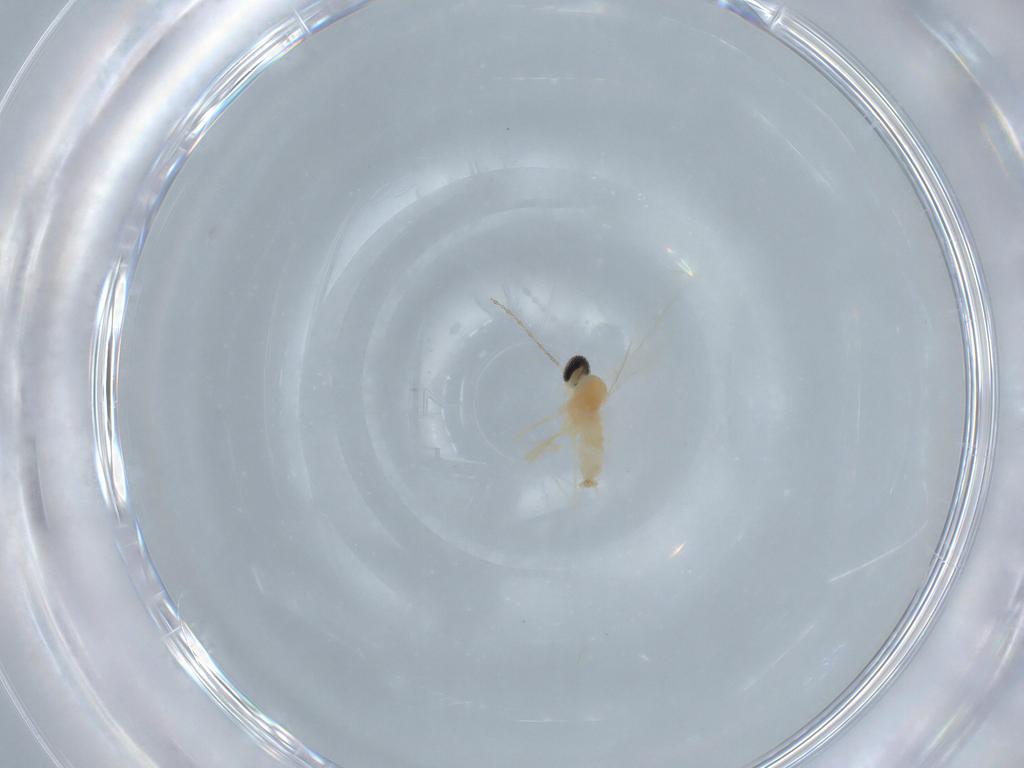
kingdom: Animalia
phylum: Arthropoda
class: Insecta
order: Diptera
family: Cecidomyiidae
